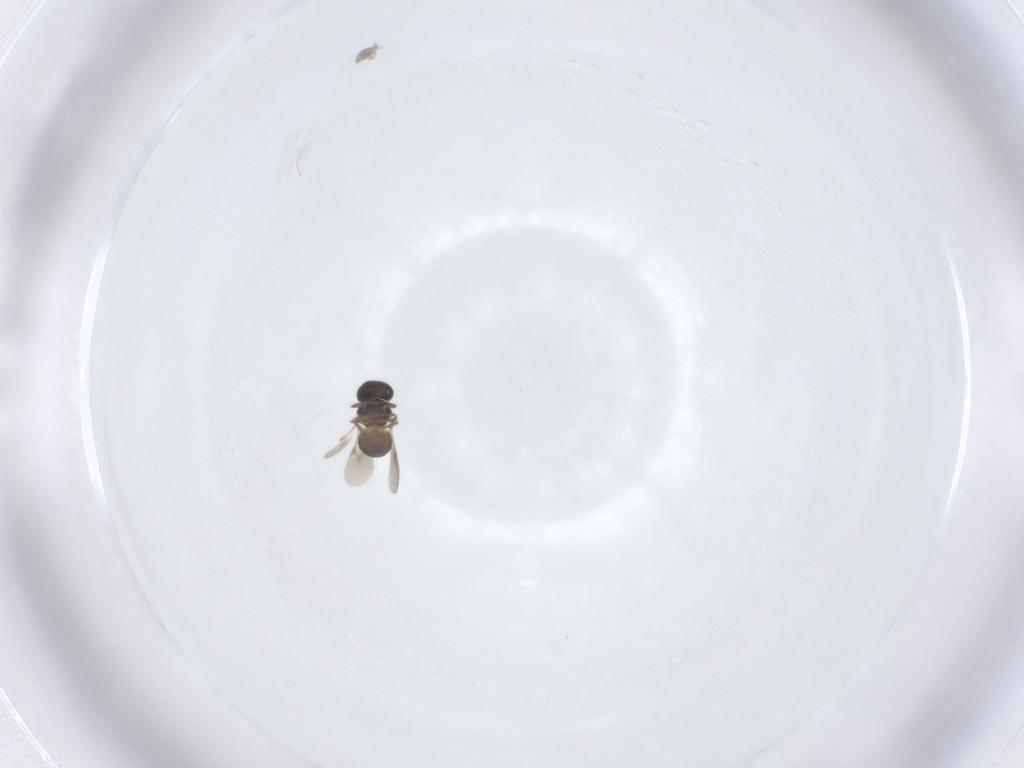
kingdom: Animalia
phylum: Arthropoda
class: Insecta
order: Hymenoptera
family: Scelionidae
